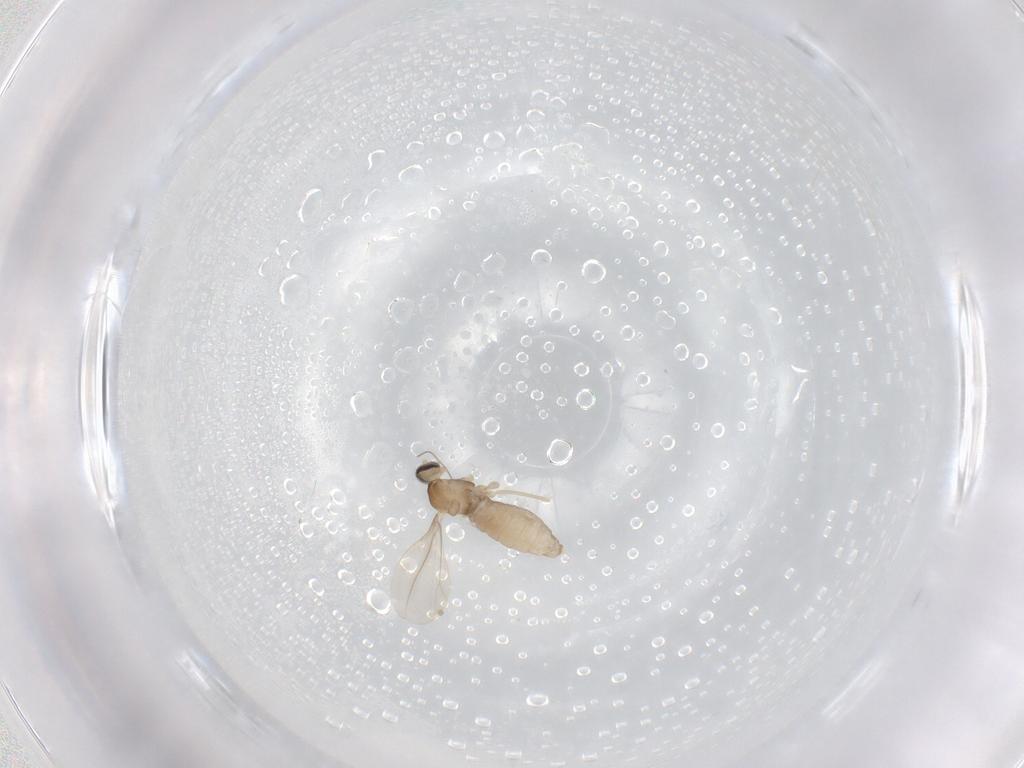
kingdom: Animalia
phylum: Arthropoda
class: Insecta
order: Diptera
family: Cecidomyiidae
